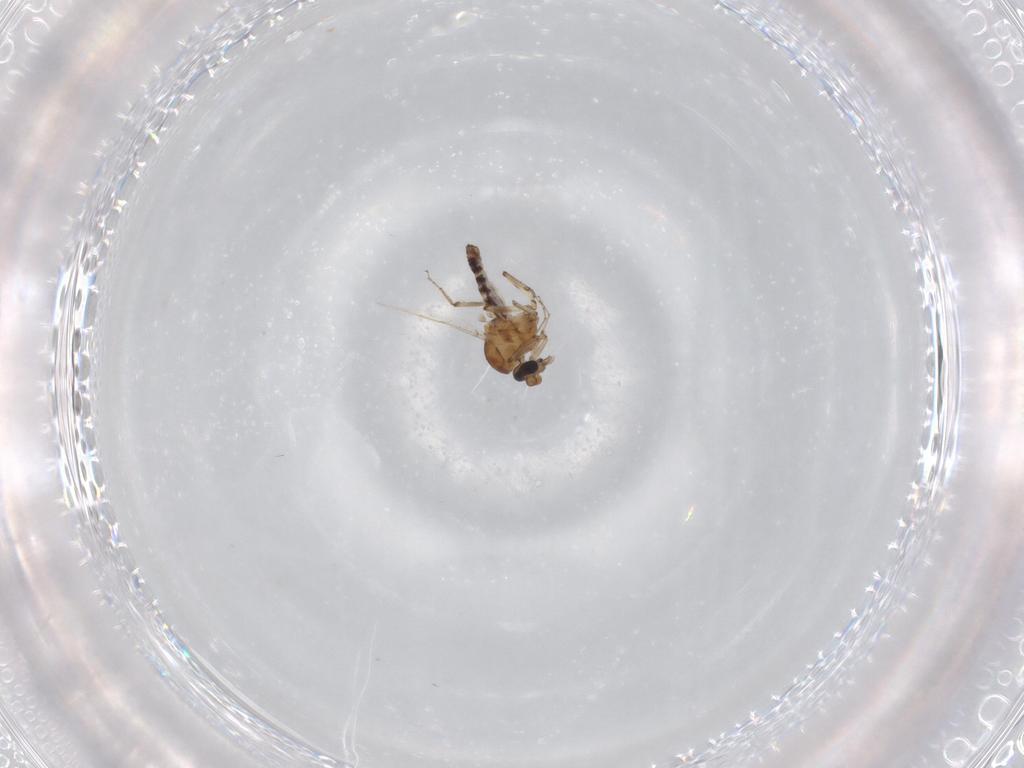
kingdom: Animalia
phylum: Arthropoda
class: Insecta
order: Diptera
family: Ceratopogonidae
